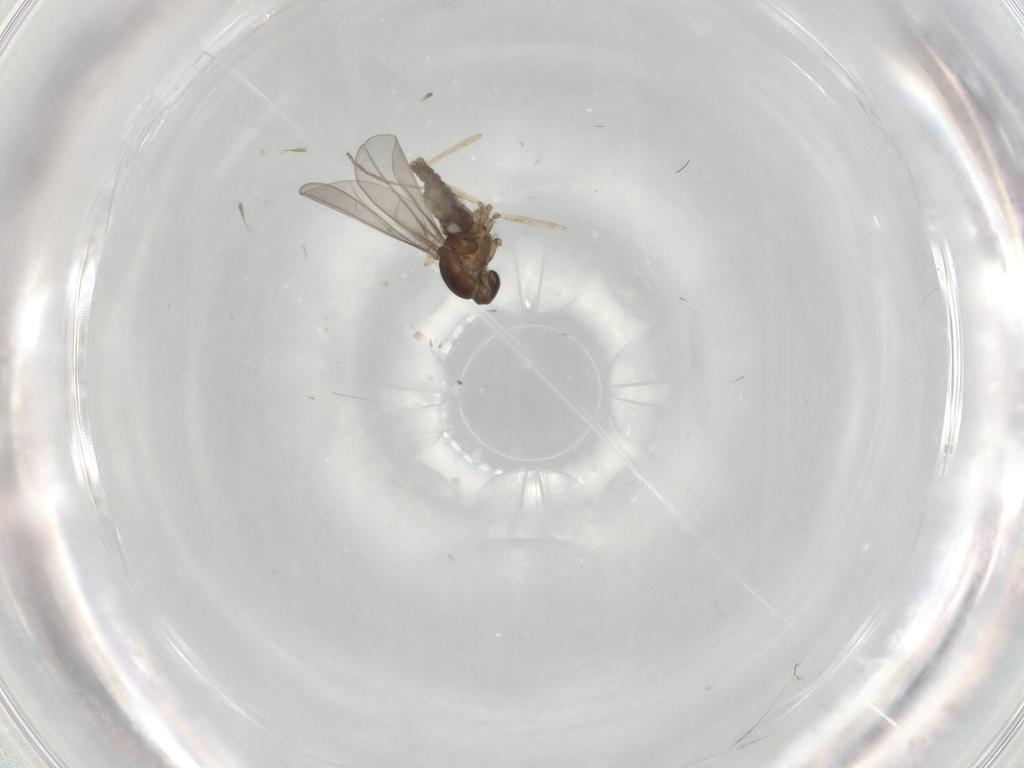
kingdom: Animalia
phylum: Arthropoda
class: Insecta
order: Diptera
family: Cecidomyiidae
